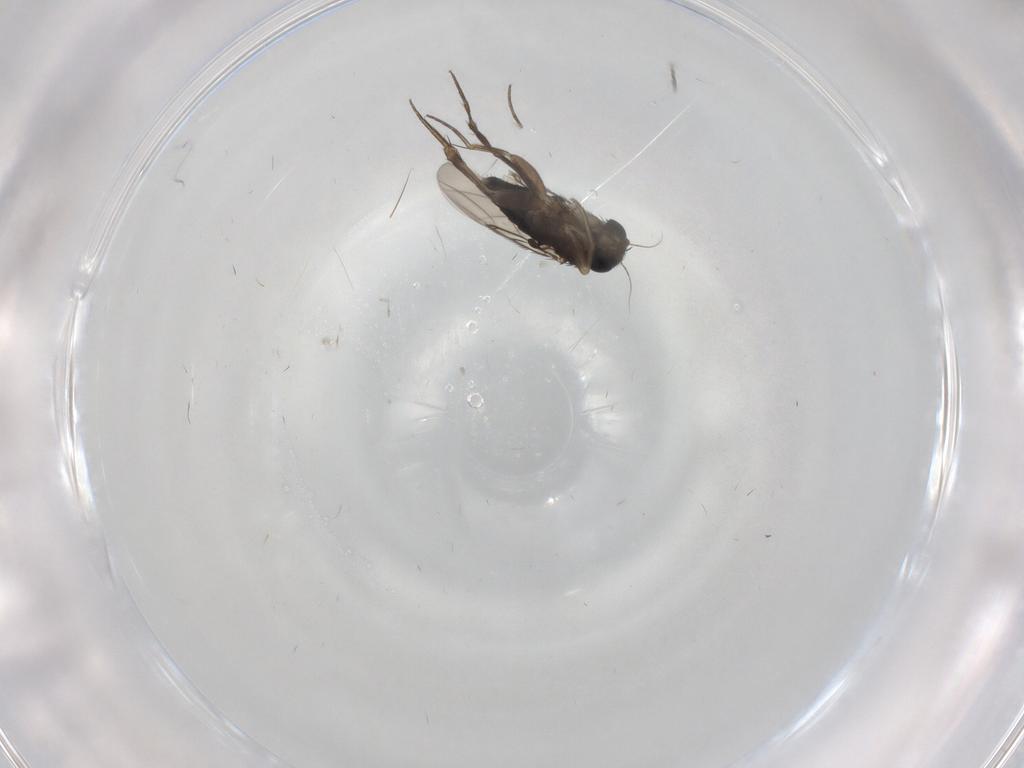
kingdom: Animalia
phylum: Arthropoda
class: Insecta
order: Diptera
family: Phoridae
